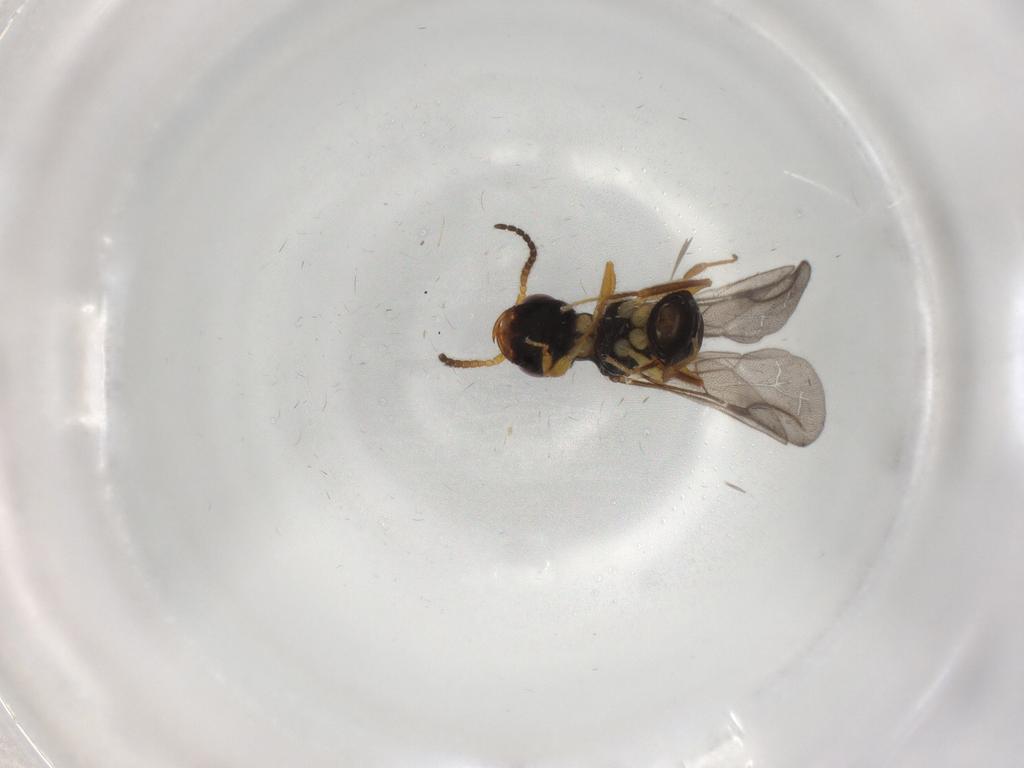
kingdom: Animalia
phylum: Arthropoda
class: Insecta
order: Hymenoptera
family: Bethylidae
